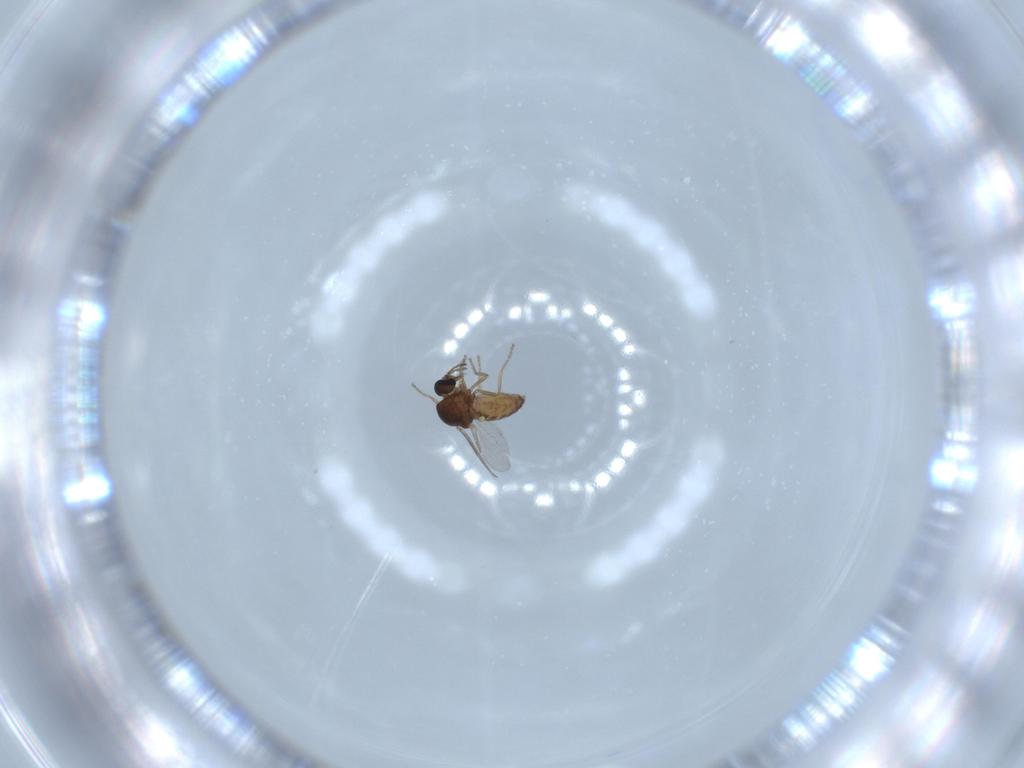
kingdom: Animalia
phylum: Arthropoda
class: Insecta
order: Diptera
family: Ceratopogonidae
